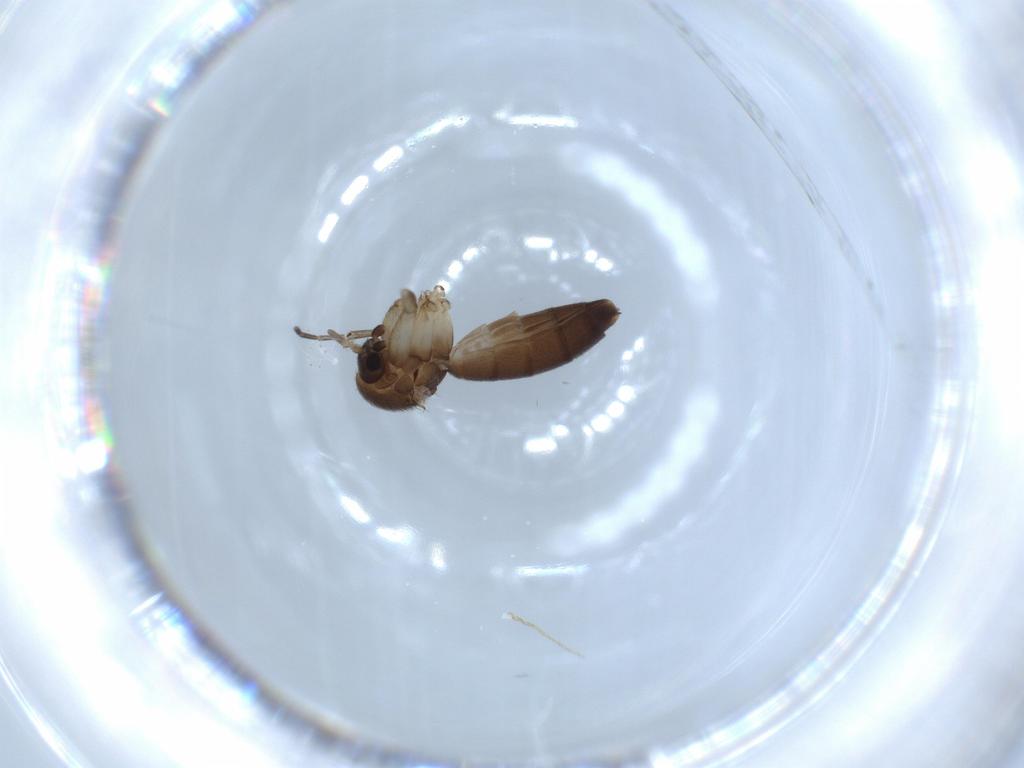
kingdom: Animalia
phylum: Arthropoda
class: Insecta
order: Diptera
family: Mycetophilidae
